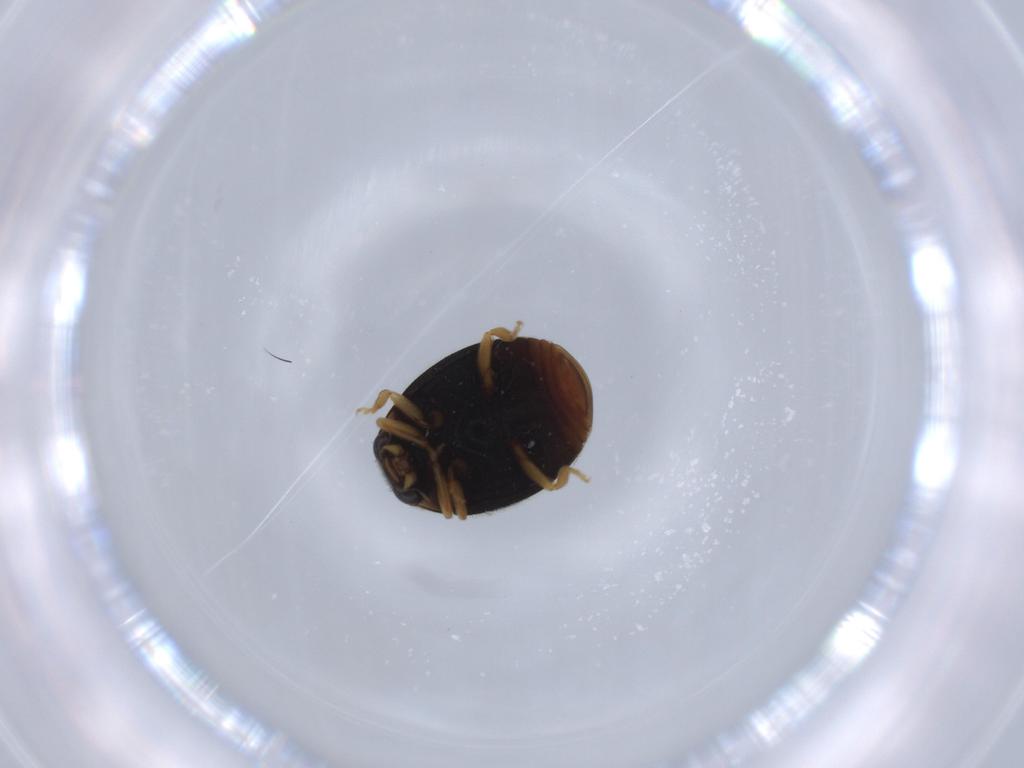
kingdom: Animalia
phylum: Arthropoda
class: Insecta
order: Coleoptera
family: Coccinellidae
